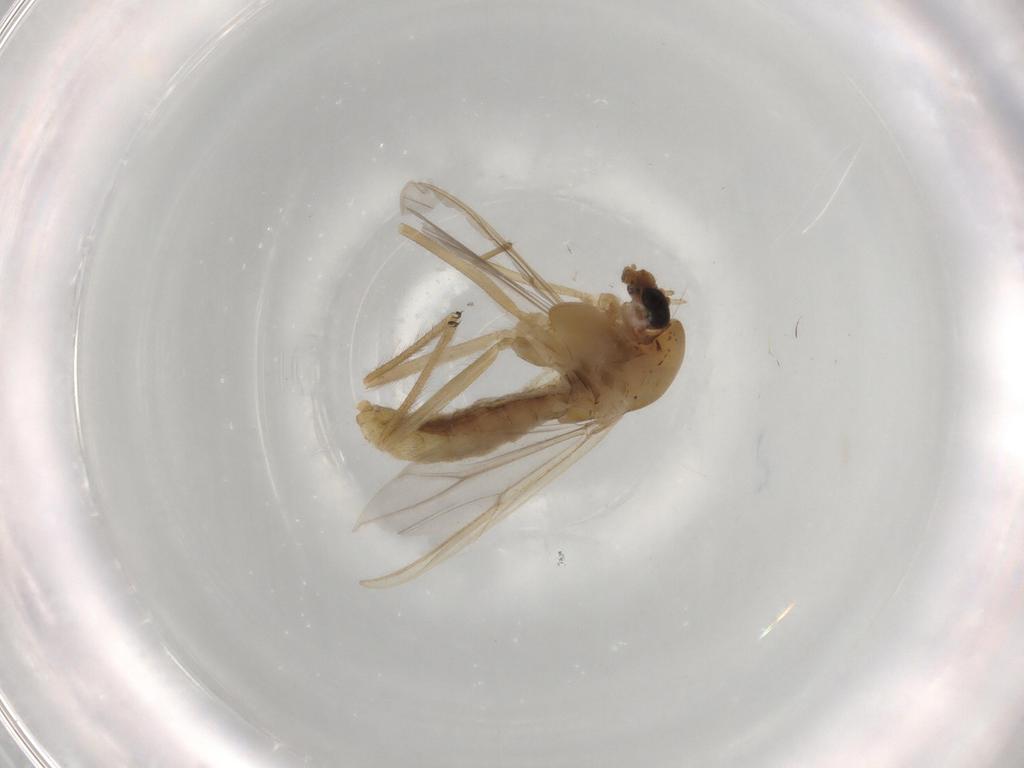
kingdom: Animalia
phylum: Arthropoda
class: Insecta
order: Diptera
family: Chironomidae
